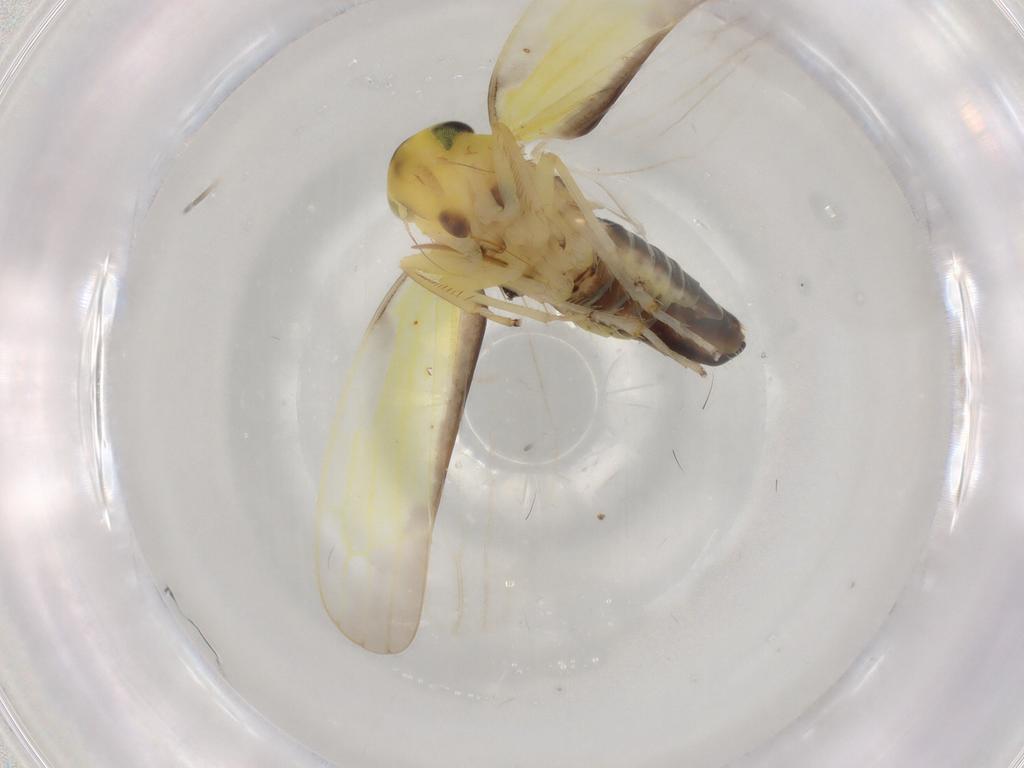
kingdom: Animalia
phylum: Arthropoda
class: Insecta
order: Hemiptera
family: Cicadellidae
